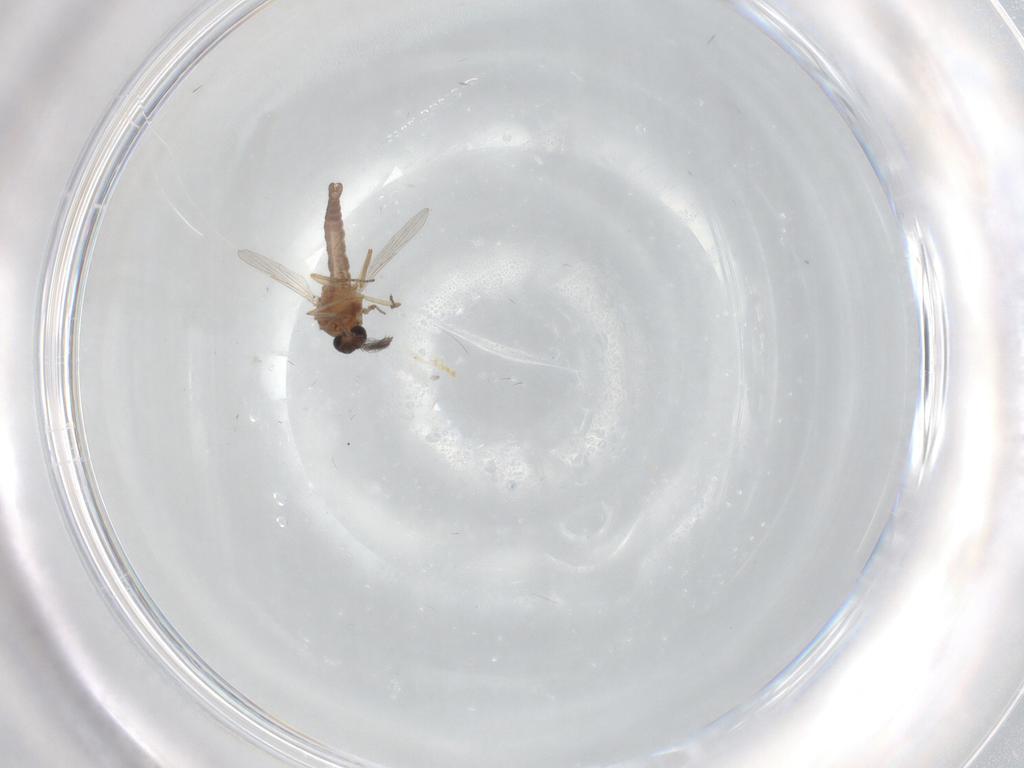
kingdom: Animalia
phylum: Arthropoda
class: Insecta
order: Diptera
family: Ceratopogonidae
